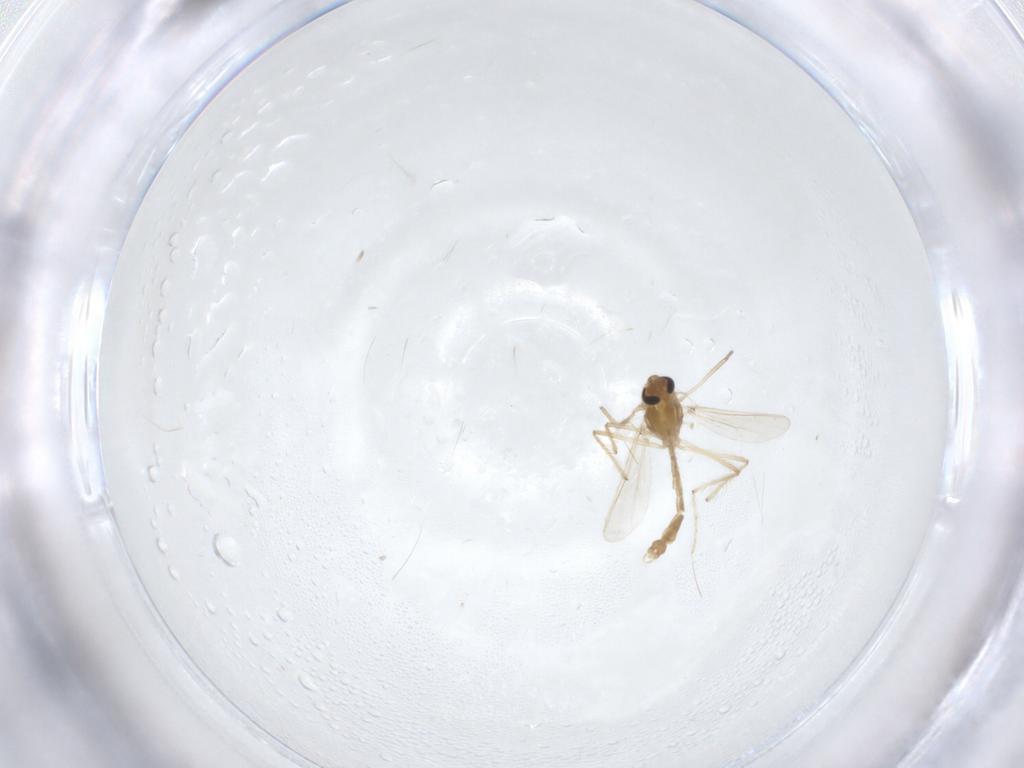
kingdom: Animalia
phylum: Arthropoda
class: Insecta
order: Diptera
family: Chironomidae
